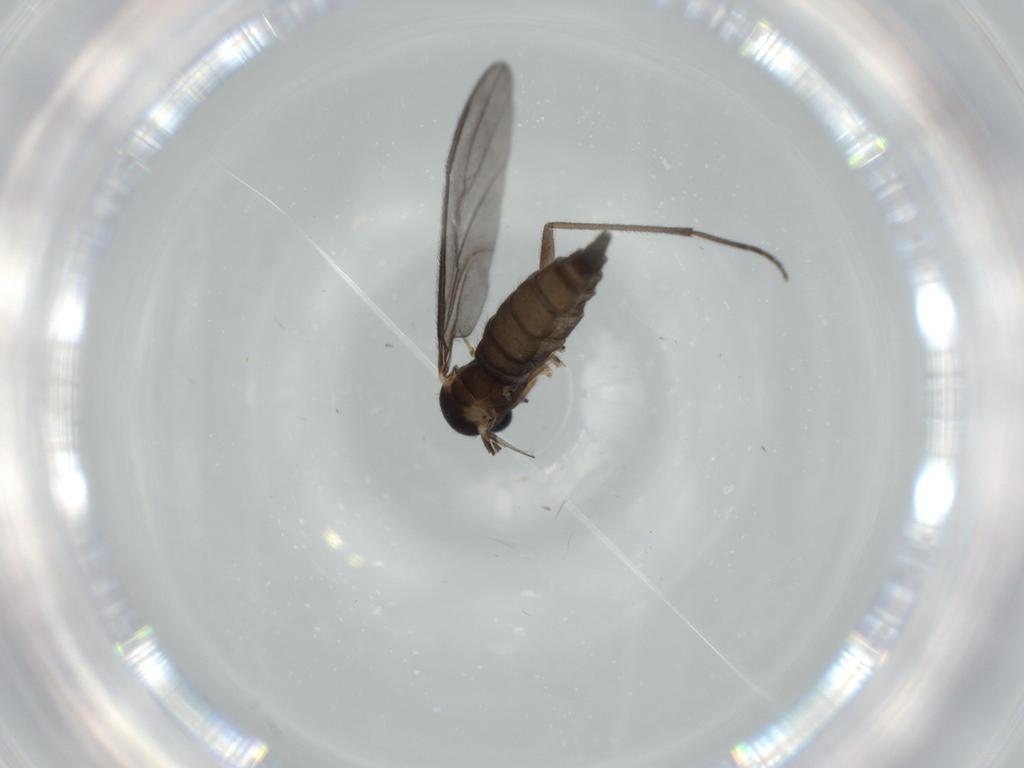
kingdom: Animalia
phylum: Arthropoda
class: Insecta
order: Diptera
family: Sciaridae
